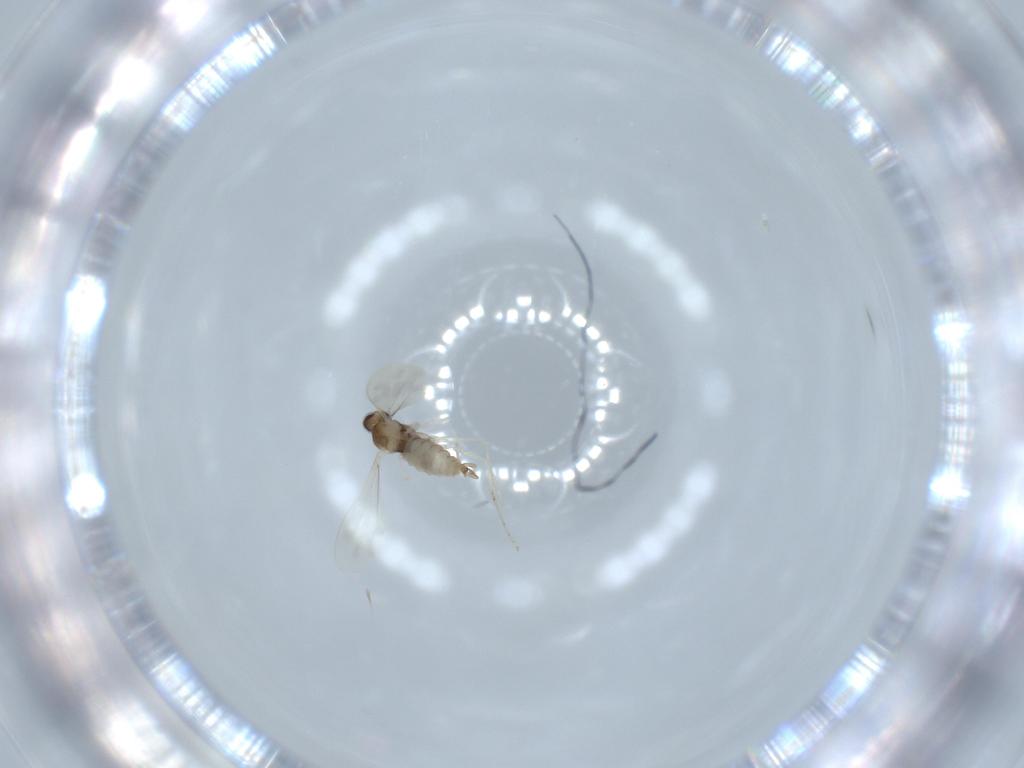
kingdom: Animalia
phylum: Arthropoda
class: Insecta
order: Diptera
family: Cecidomyiidae
